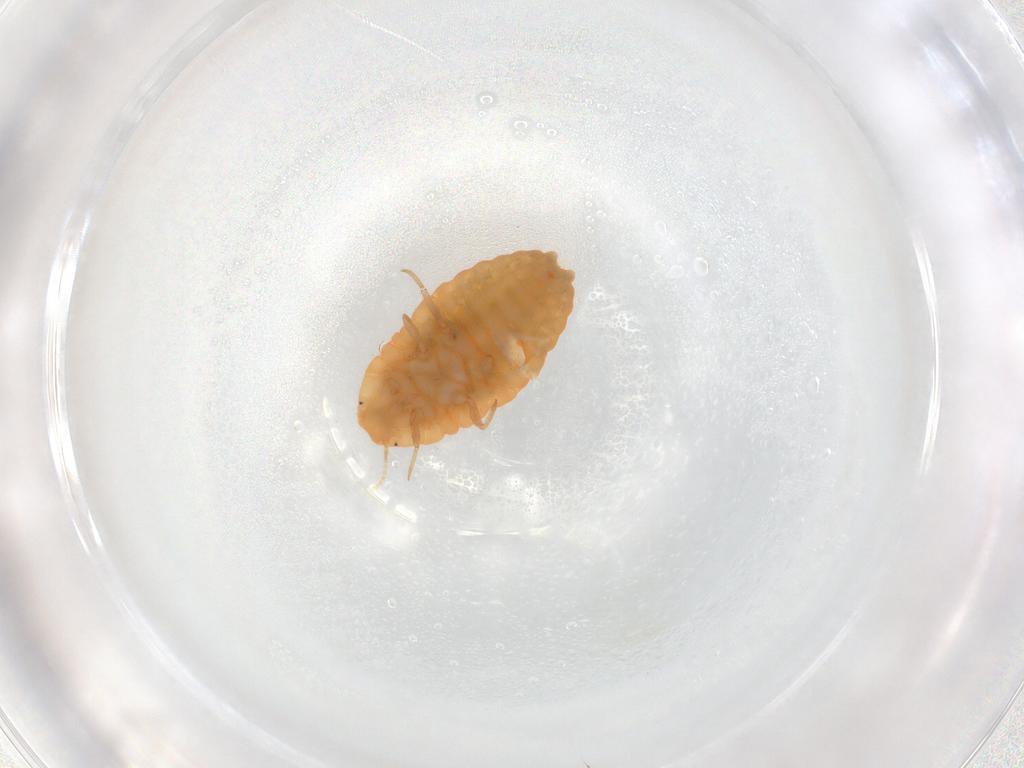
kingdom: Animalia
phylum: Arthropoda
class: Insecta
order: Hemiptera
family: Pseudococcidae
